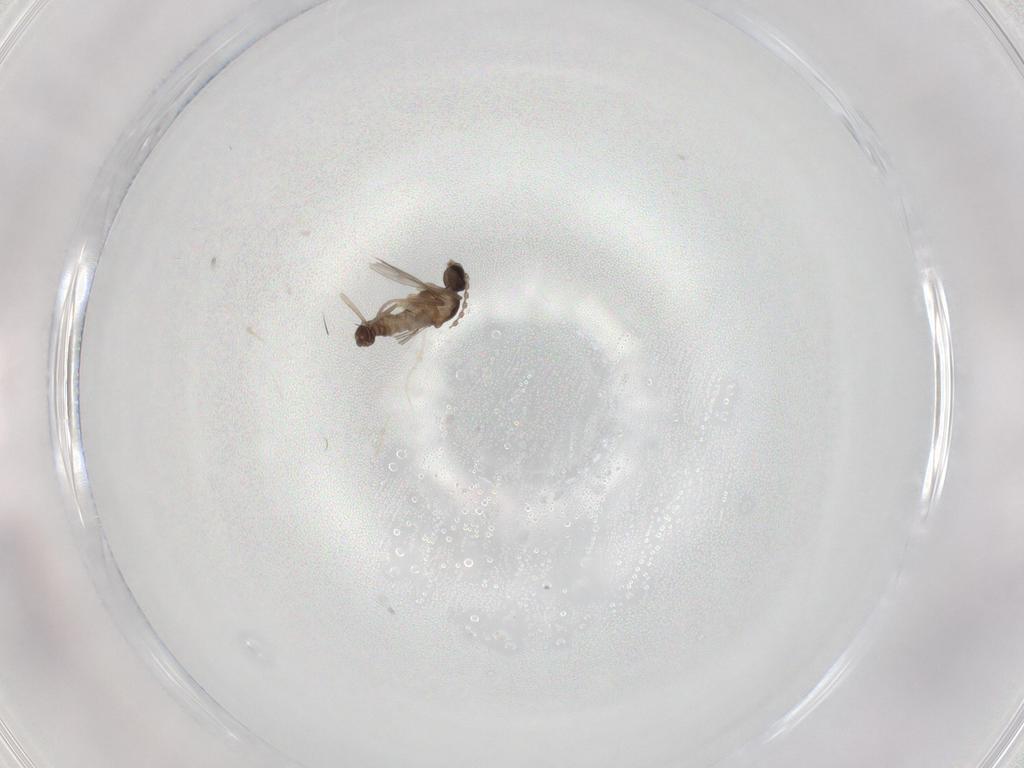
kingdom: Animalia
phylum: Arthropoda
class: Insecta
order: Diptera
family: Cecidomyiidae
